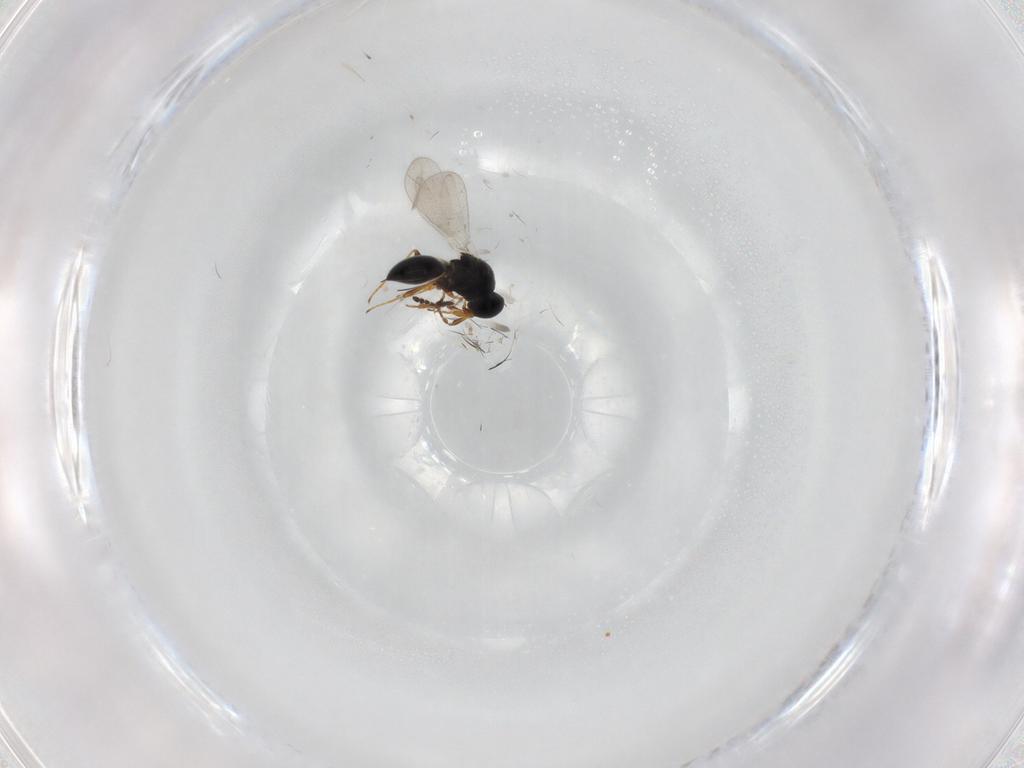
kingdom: Animalia
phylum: Arthropoda
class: Insecta
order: Hymenoptera
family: Platygastridae
